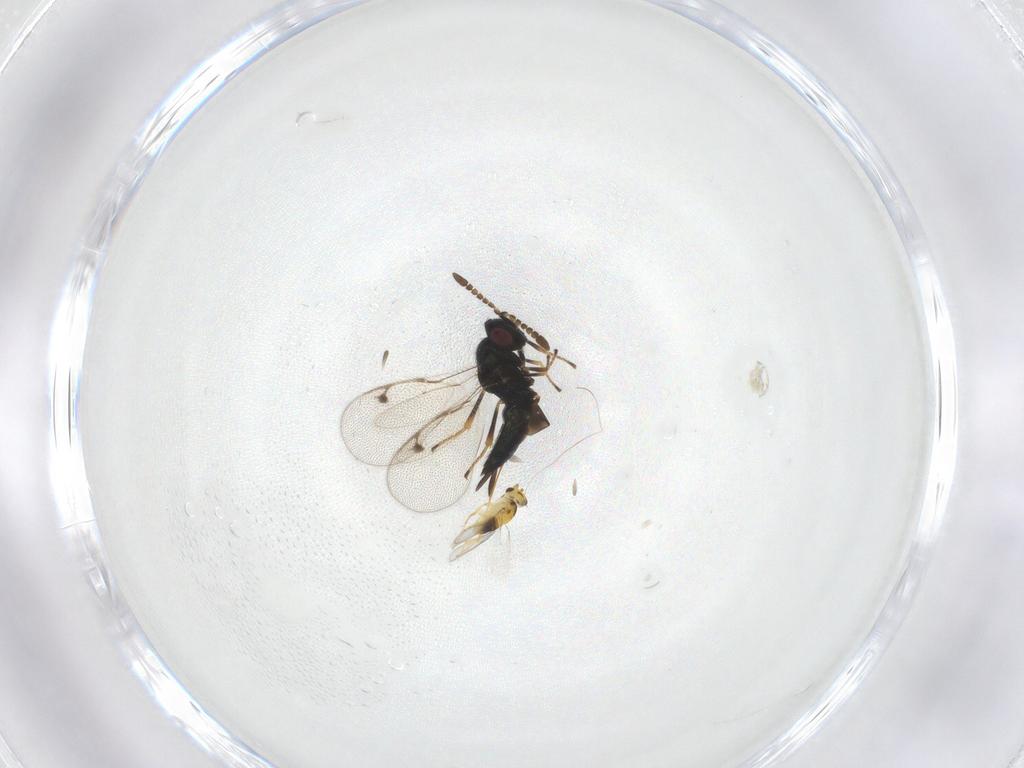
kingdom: Animalia
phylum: Arthropoda
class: Insecta
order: Hymenoptera
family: Aphelinidae
